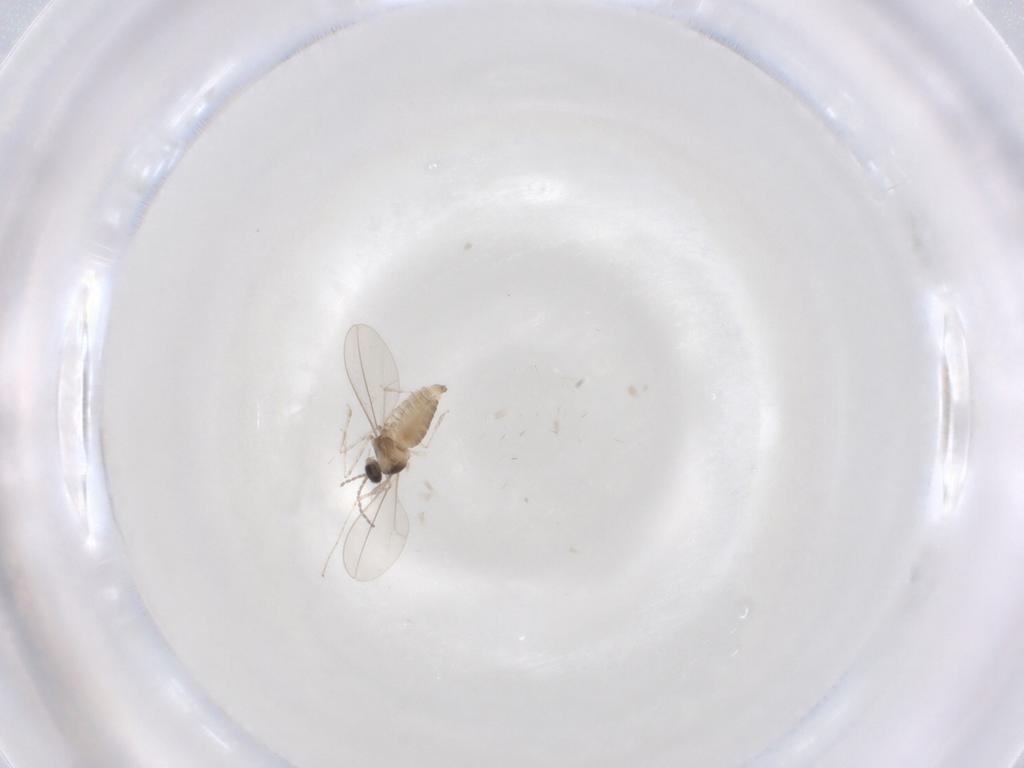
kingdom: Animalia
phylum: Arthropoda
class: Insecta
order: Diptera
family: Cecidomyiidae
